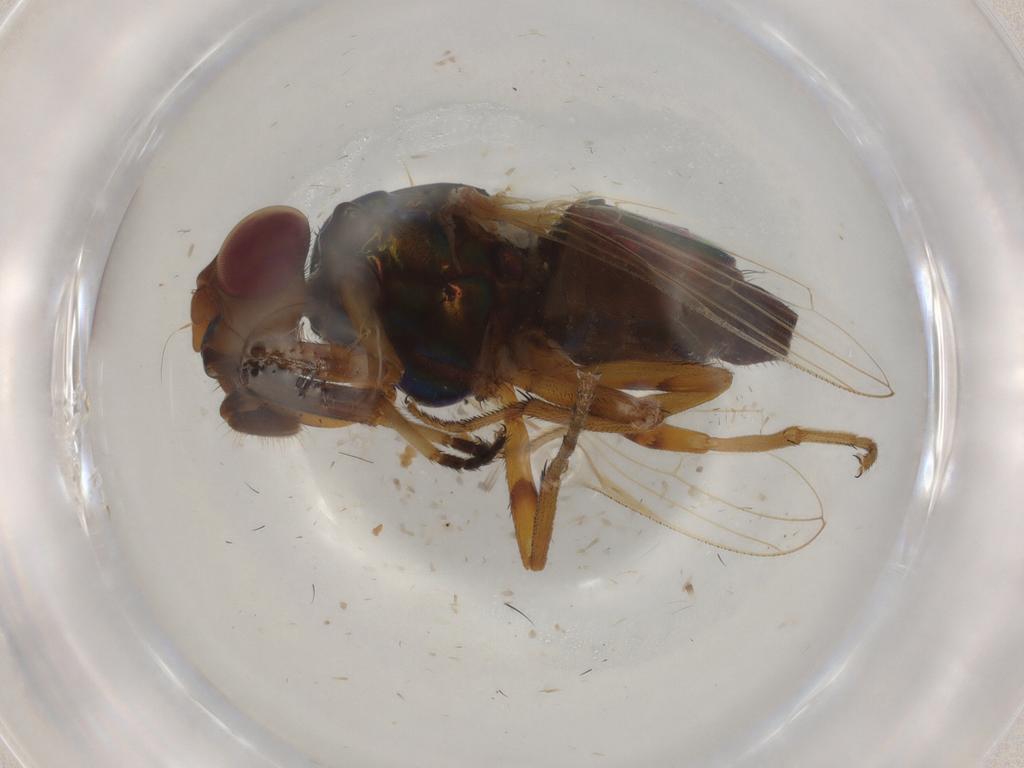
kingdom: Animalia
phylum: Arthropoda
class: Insecta
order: Diptera
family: Ulidiidae
